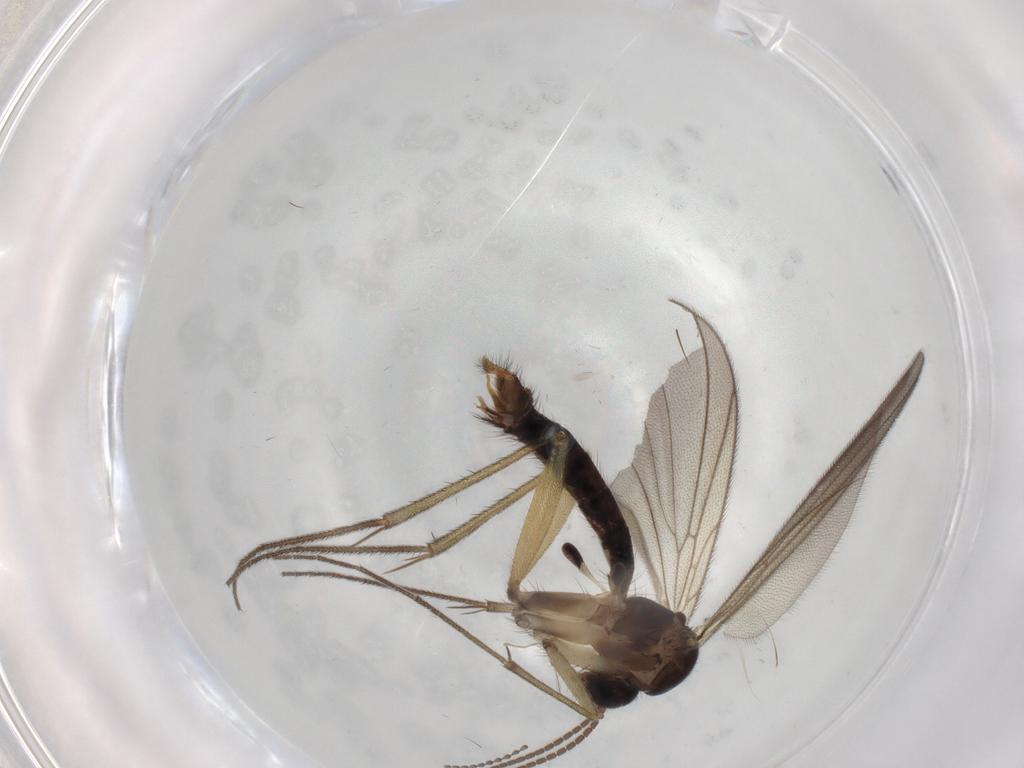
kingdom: Animalia
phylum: Arthropoda
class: Insecta
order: Diptera
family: Mycetophilidae
